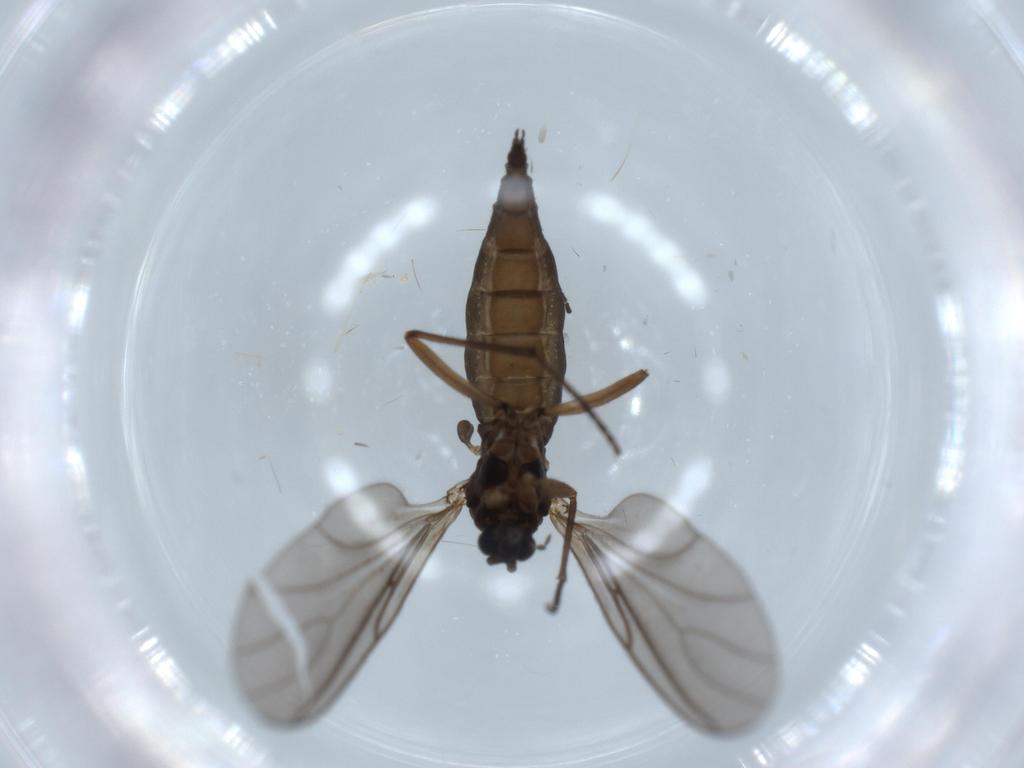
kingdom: Animalia
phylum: Arthropoda
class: Insecta
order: Diptera
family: Sciaridae
